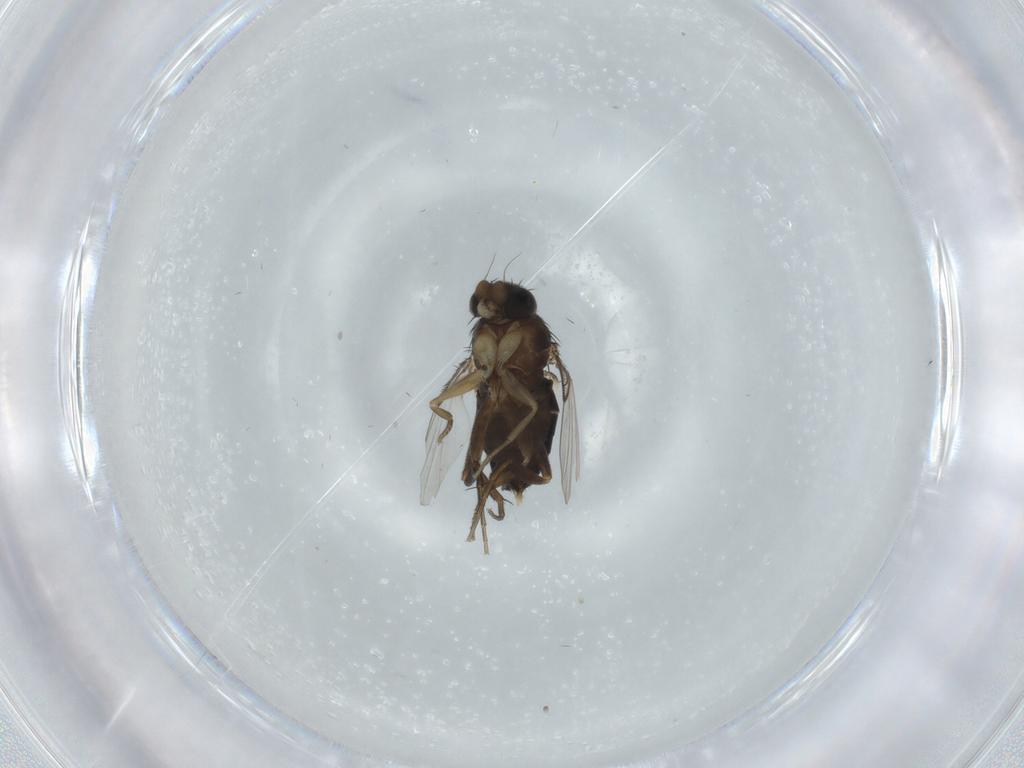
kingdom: Animalia
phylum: Arthropoda
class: Insecta
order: Diptera
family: Phoridae
